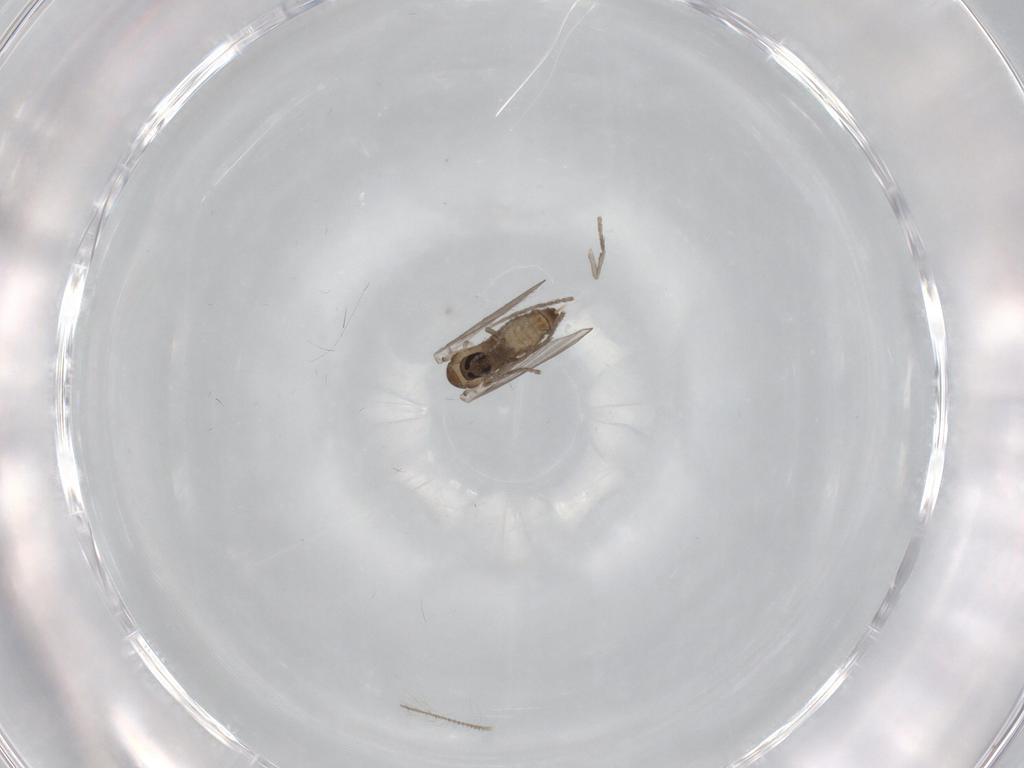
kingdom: Animalia
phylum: Arthropoda
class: Insecta
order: Diptera
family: Psychodidae
